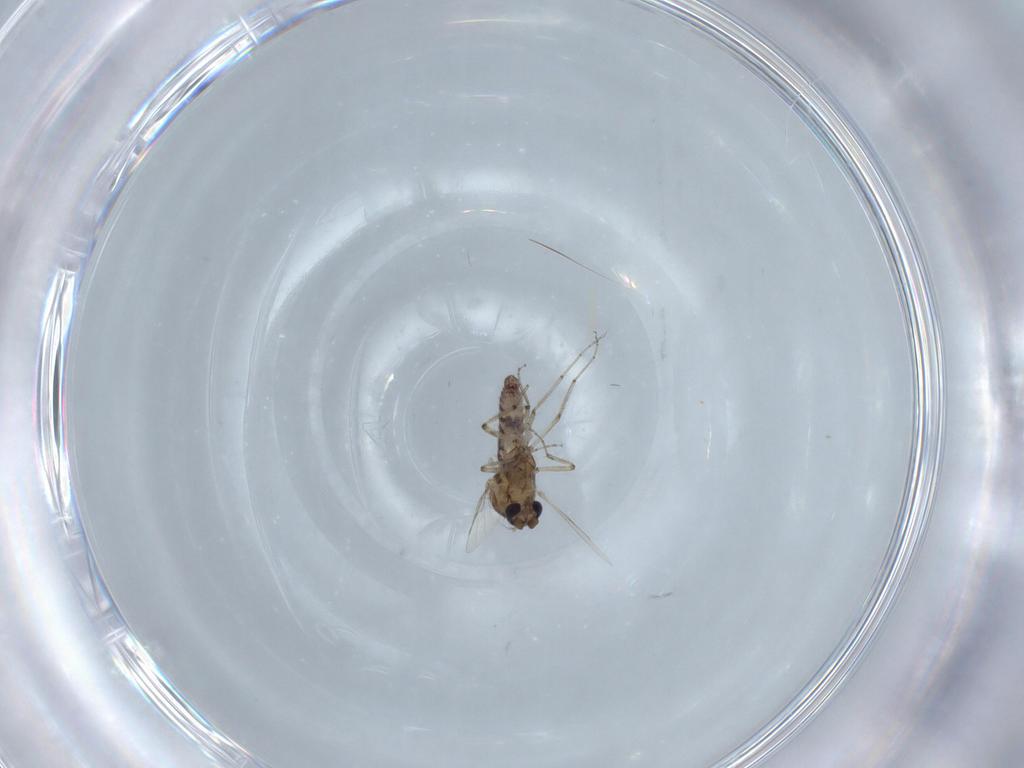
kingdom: Animalia
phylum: Arthropoda
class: Insecta
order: Diptera
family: Ceratopogonidae
